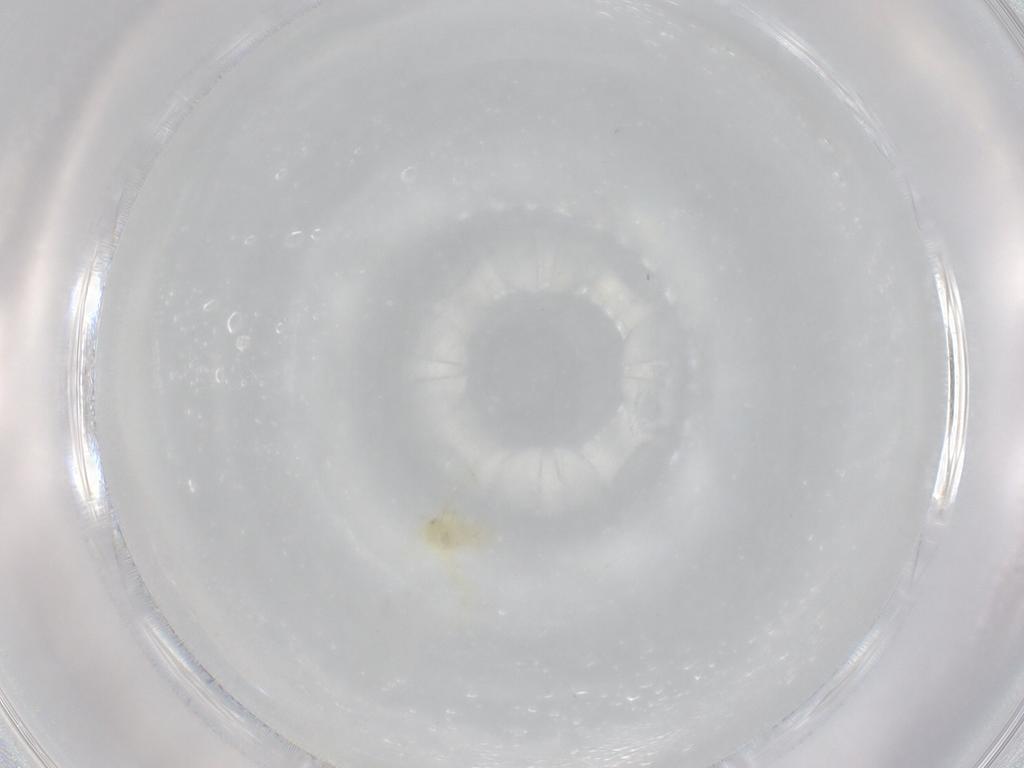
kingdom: Animalia
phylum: Arthropoda
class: Insecta
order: Hemiptera
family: Aleyrodidae
